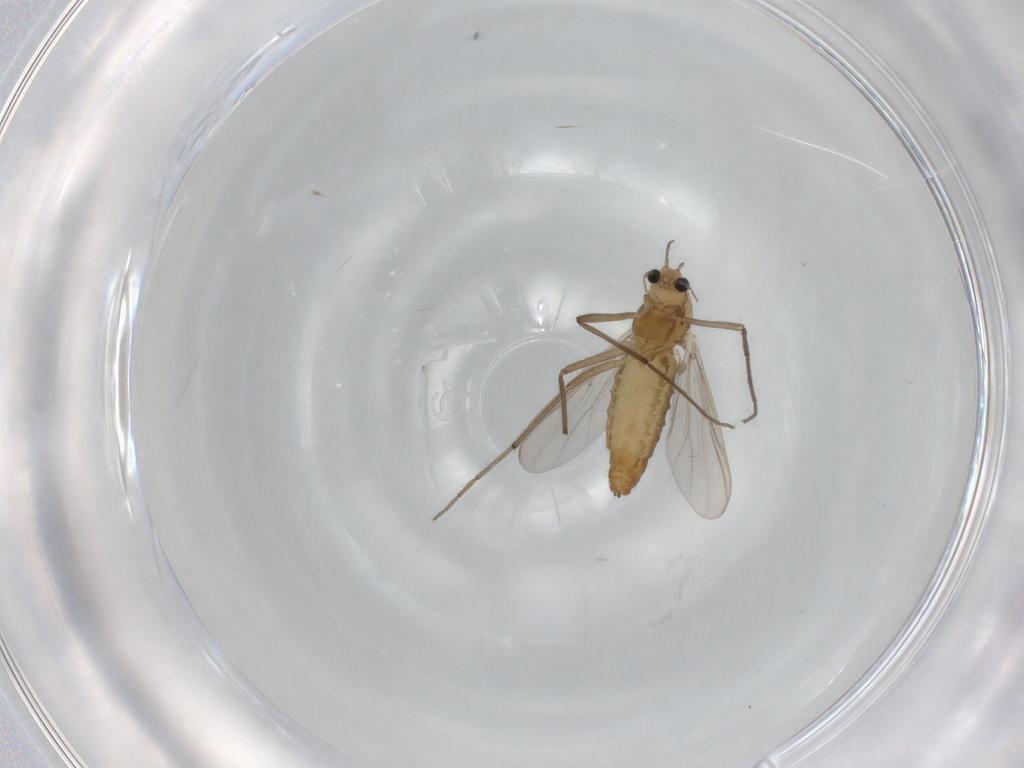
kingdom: Animalia
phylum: Arthropoda
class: Insecta
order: Diptera
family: Chironomidae
